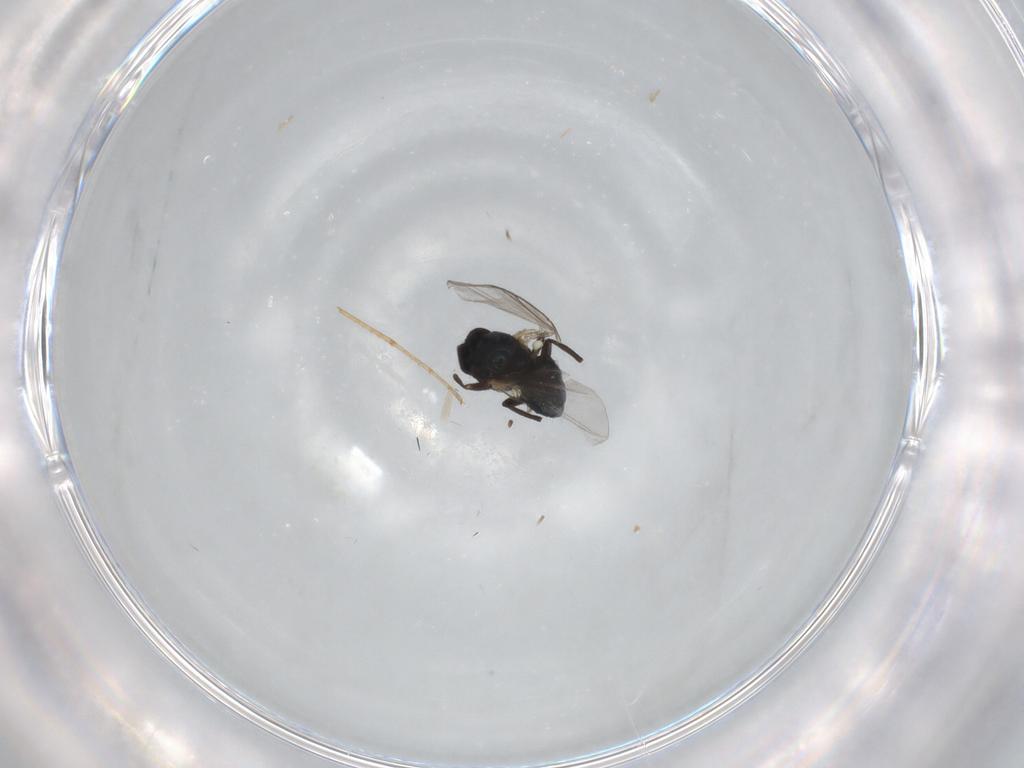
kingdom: Animalia
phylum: Arthropoda
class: Insecta
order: Diptera
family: Chironomidae
